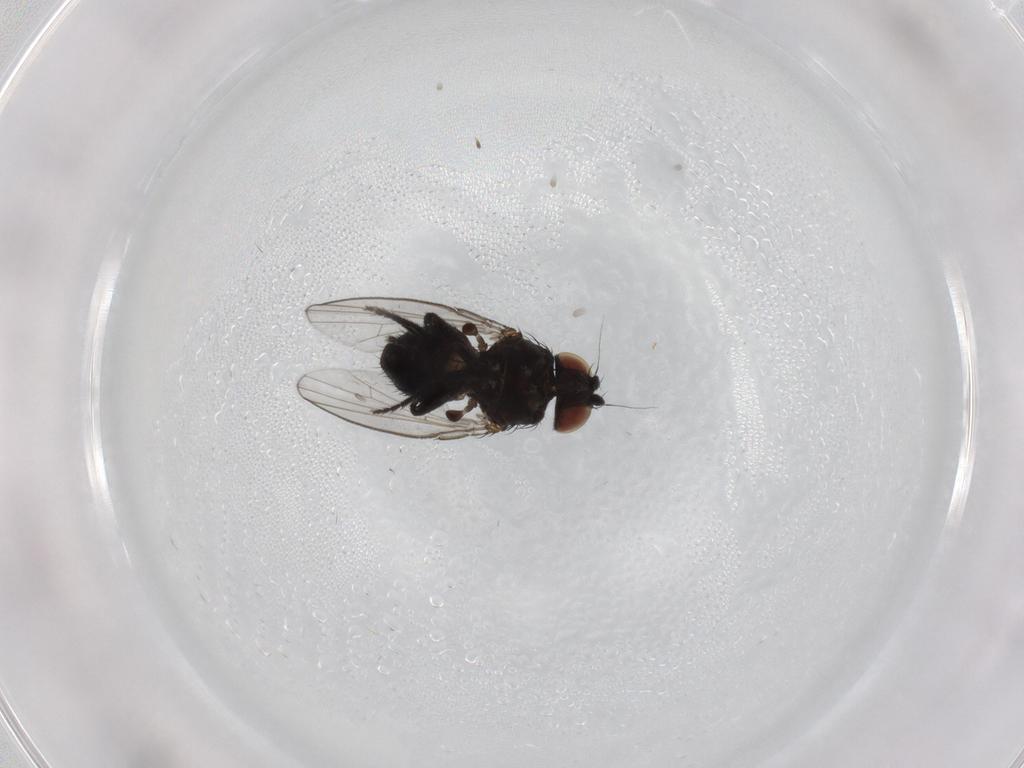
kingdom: Animalia
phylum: Arthropoda
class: Insecta
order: Diptera
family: Milichiidae
